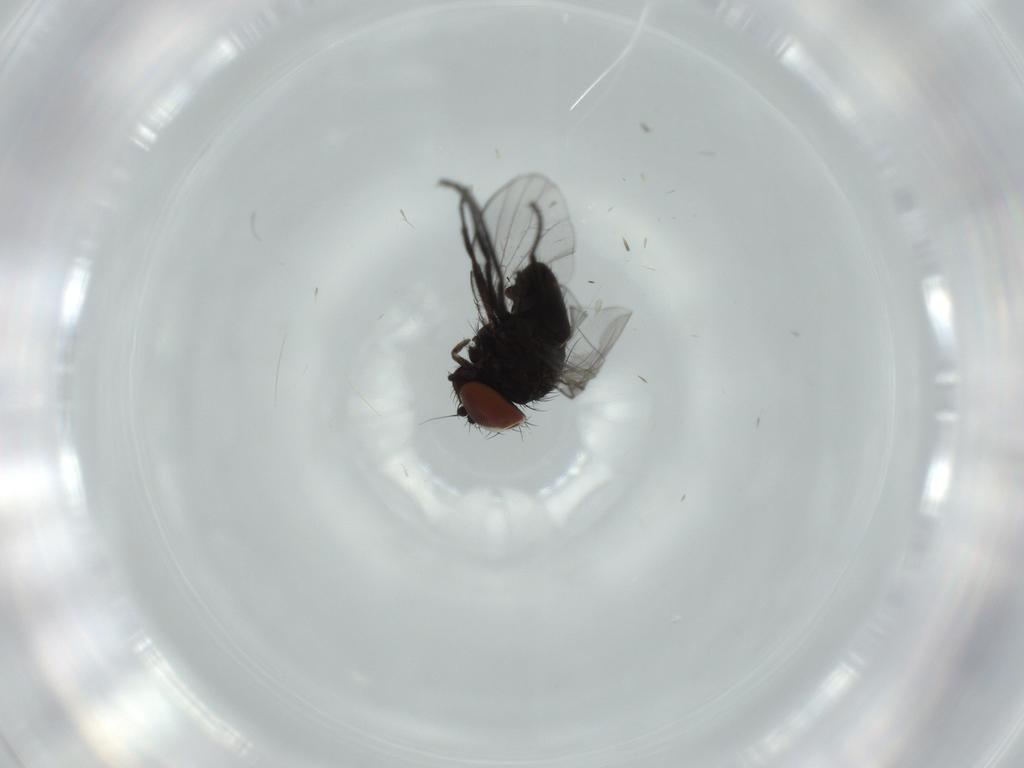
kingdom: Animalia
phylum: Arthropoda
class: Insecta
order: Diptera
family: Milichiidae
